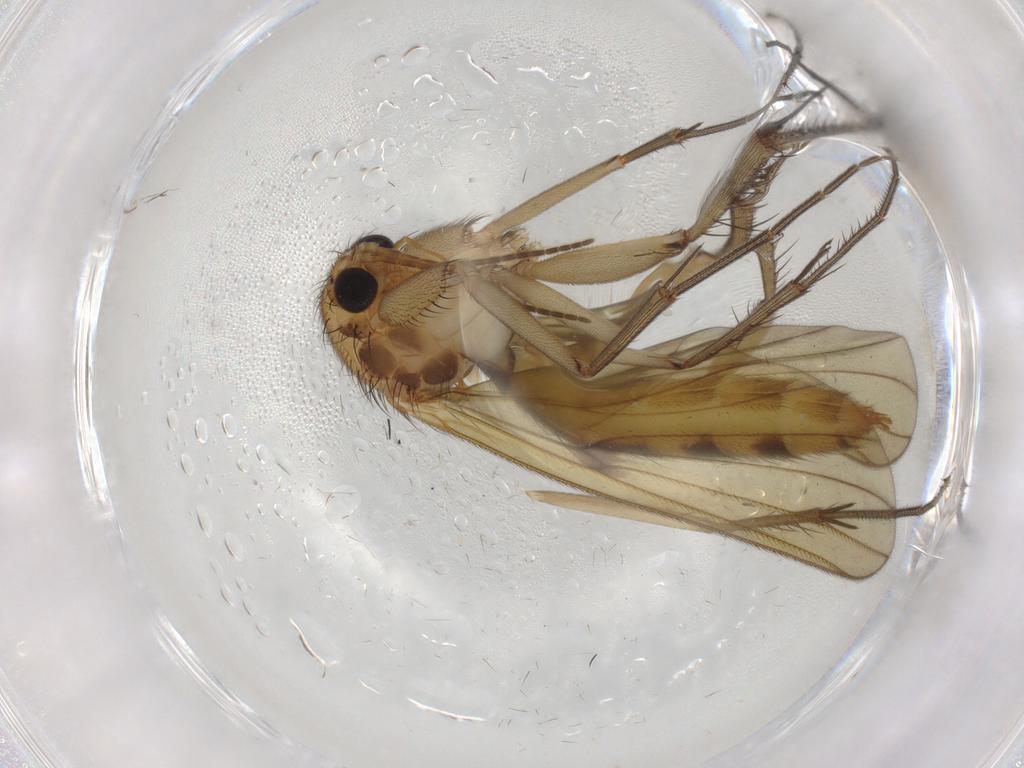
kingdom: Animalia
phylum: Arthropoda
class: Insecta
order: Diptera
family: Mycetophilidae
